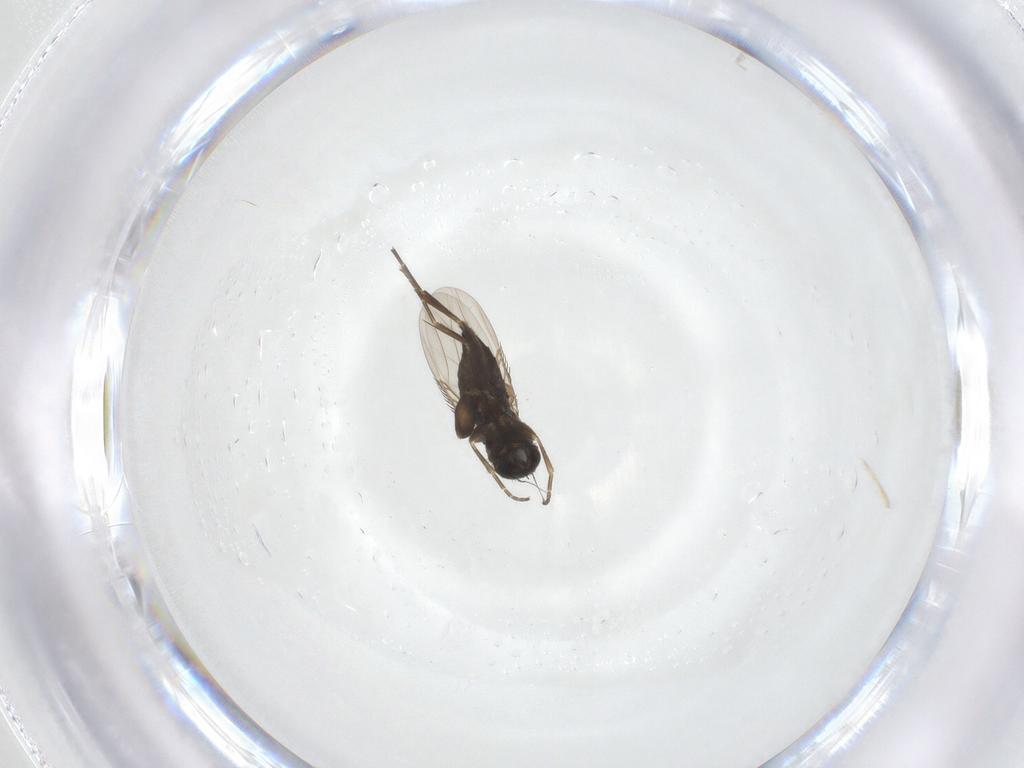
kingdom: Animalia
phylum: Arthropoda
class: Insecta
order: Diptera
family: Phoridae
